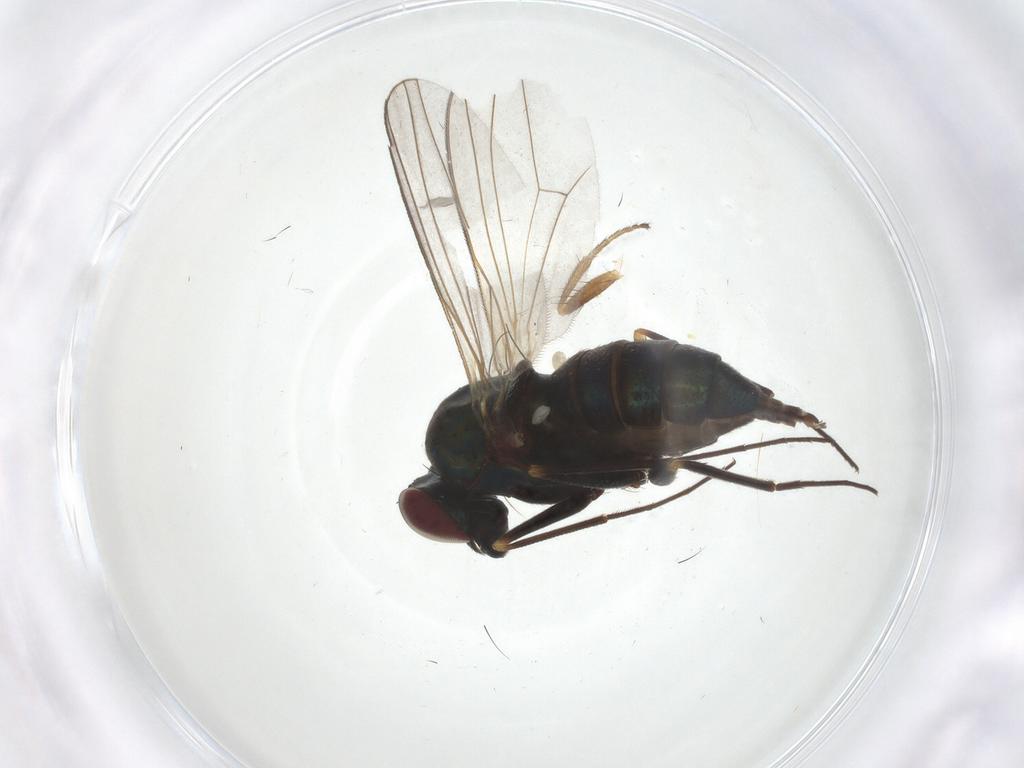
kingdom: Animalia
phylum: Arthropoda
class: Insecta
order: Diptera
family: Dolichopodidae
